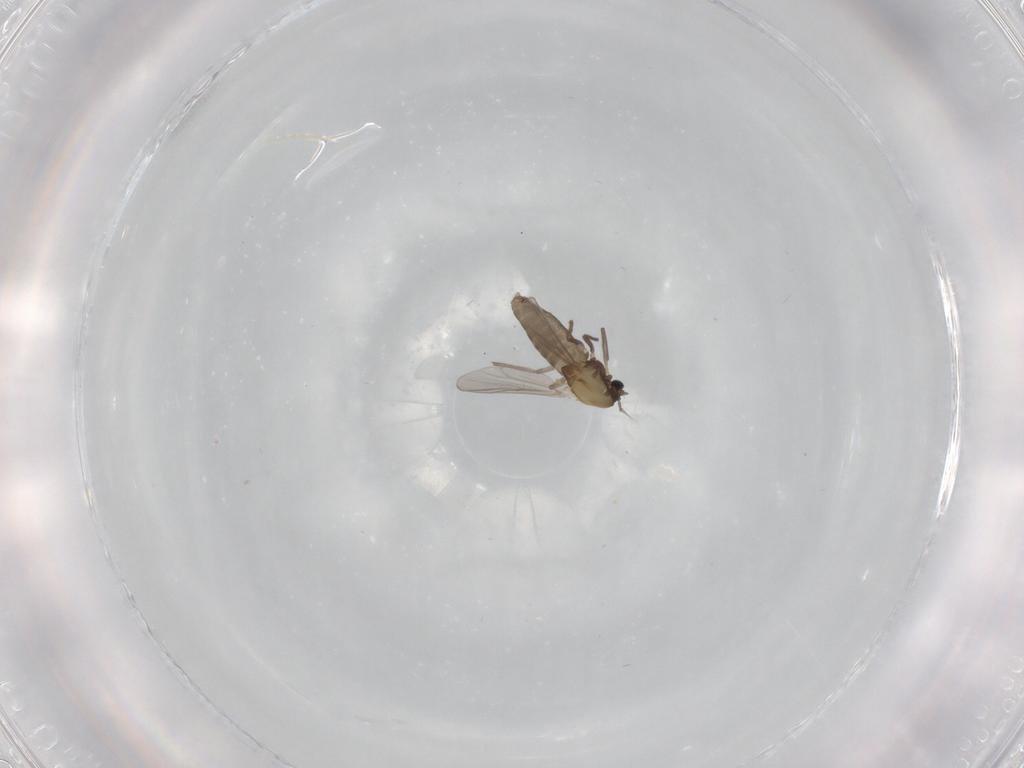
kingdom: Animalia
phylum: Arthropoda
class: Insecta
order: Diptera
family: Chironomidae
